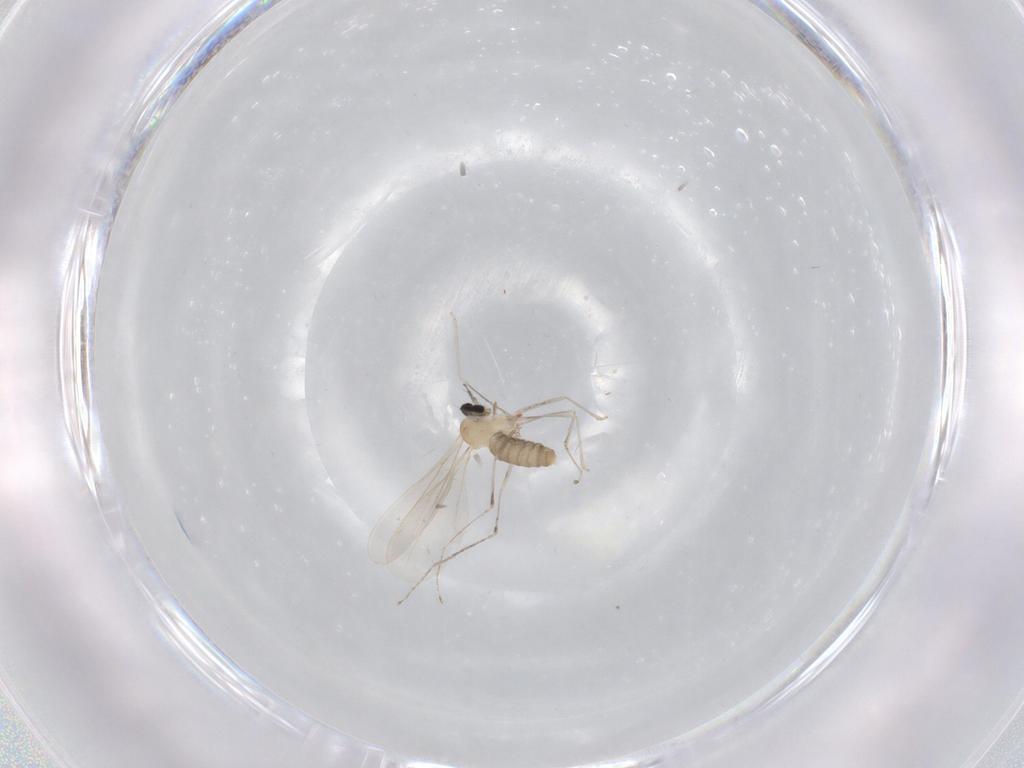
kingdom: Animalia
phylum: Arthropoda
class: Insecta
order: Diptera
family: Cecidomyiidae
